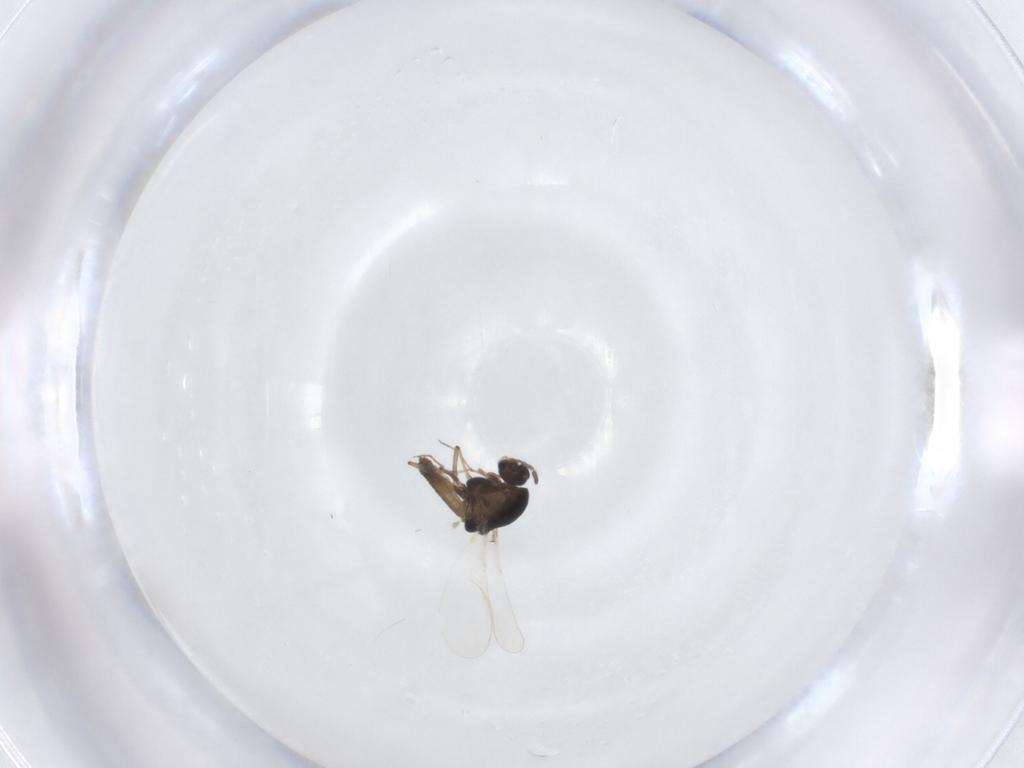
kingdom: Animalia
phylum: Arthropoda
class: Insecta
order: Diptera
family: Chironomidae
